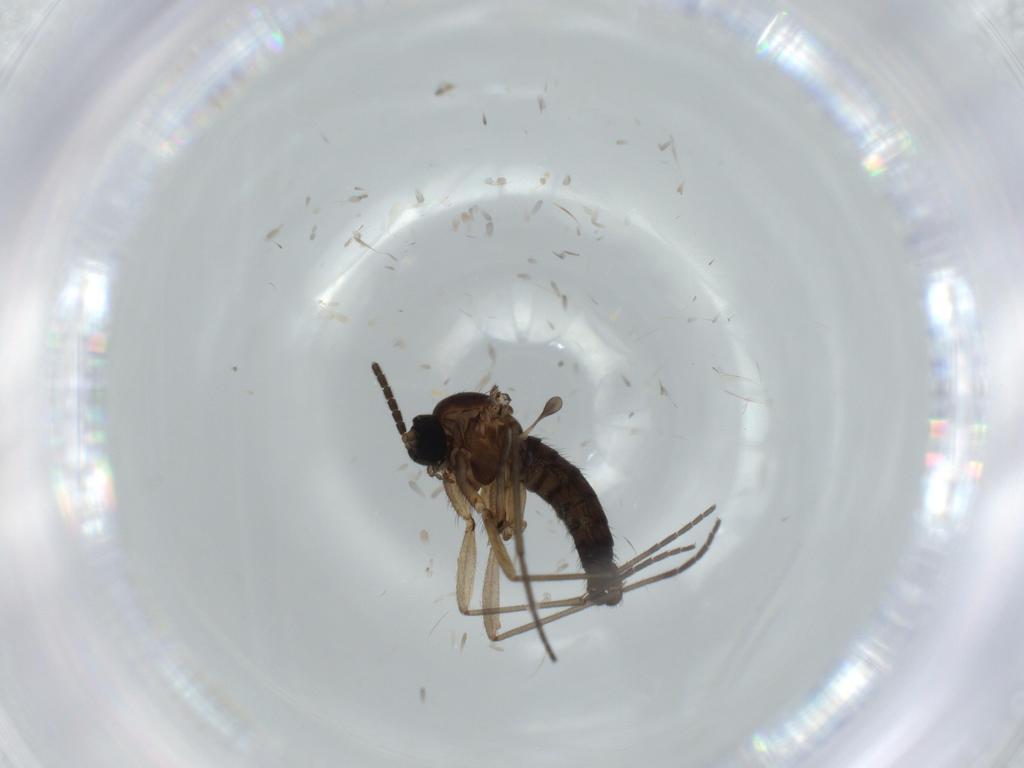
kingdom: Animalia
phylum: Arthropoda
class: Insecta
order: Diptera
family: Sciaridae
